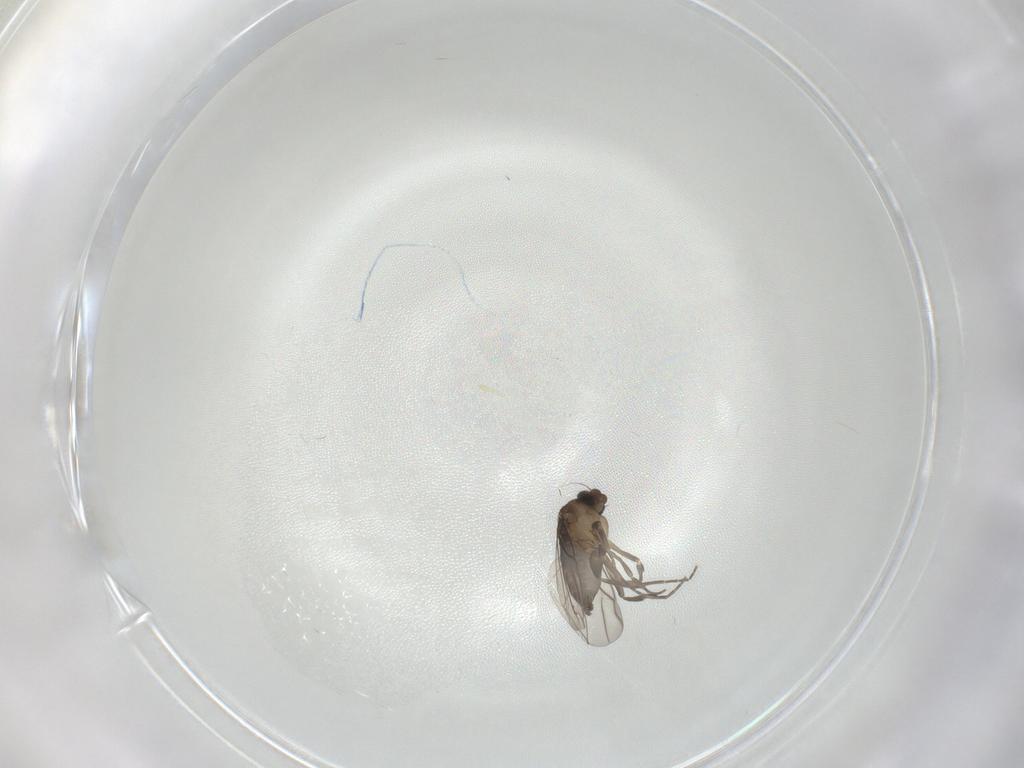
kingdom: Animalia
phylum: Arthropoda
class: Insecta
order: Diptera
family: Phoridae
